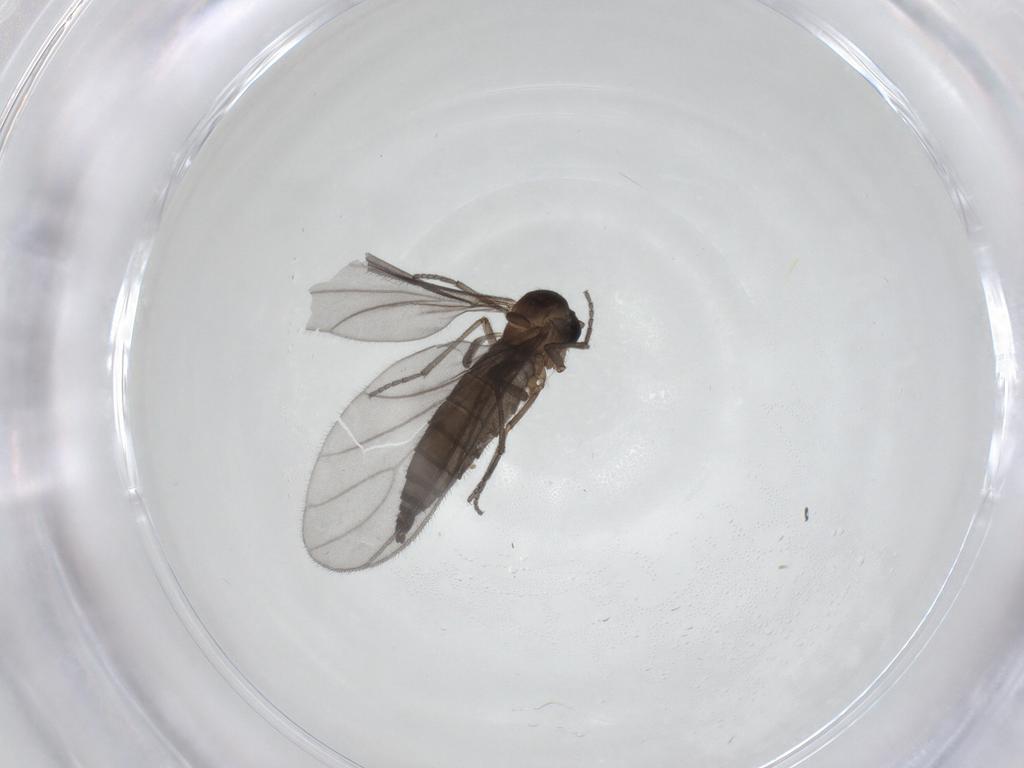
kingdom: Animalia
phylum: Arthropoda
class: Insecta
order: Diptera
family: Sciaridae
